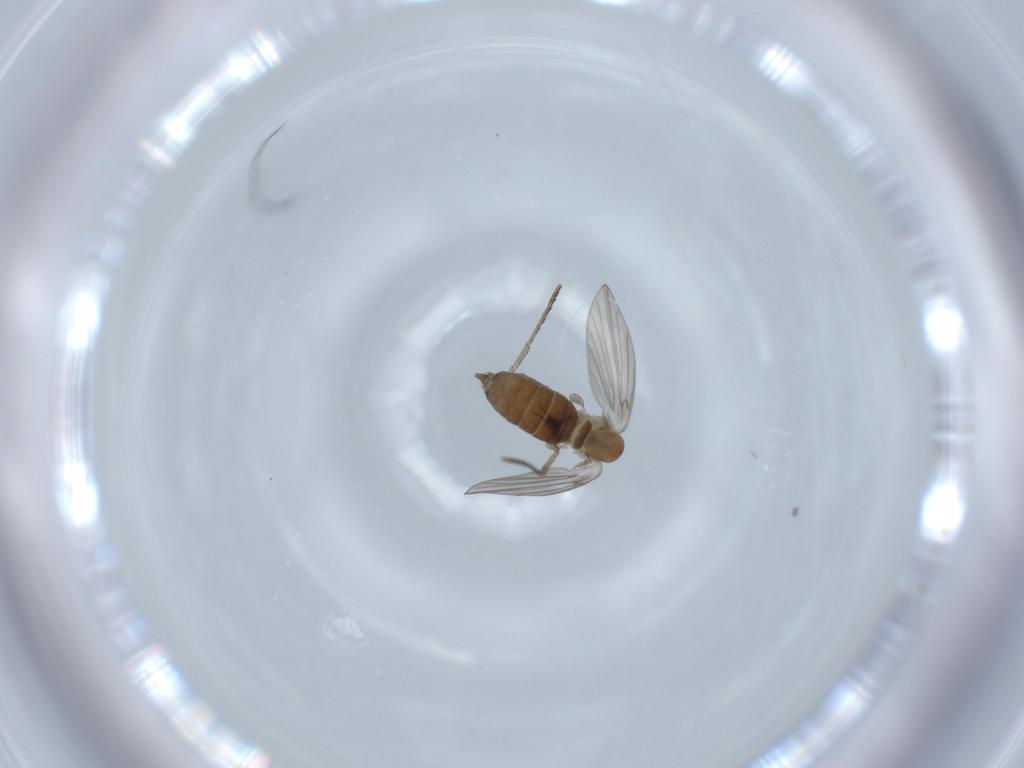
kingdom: Animalia
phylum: Arthropoda
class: Insecta
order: Diptera
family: Psychodidae
